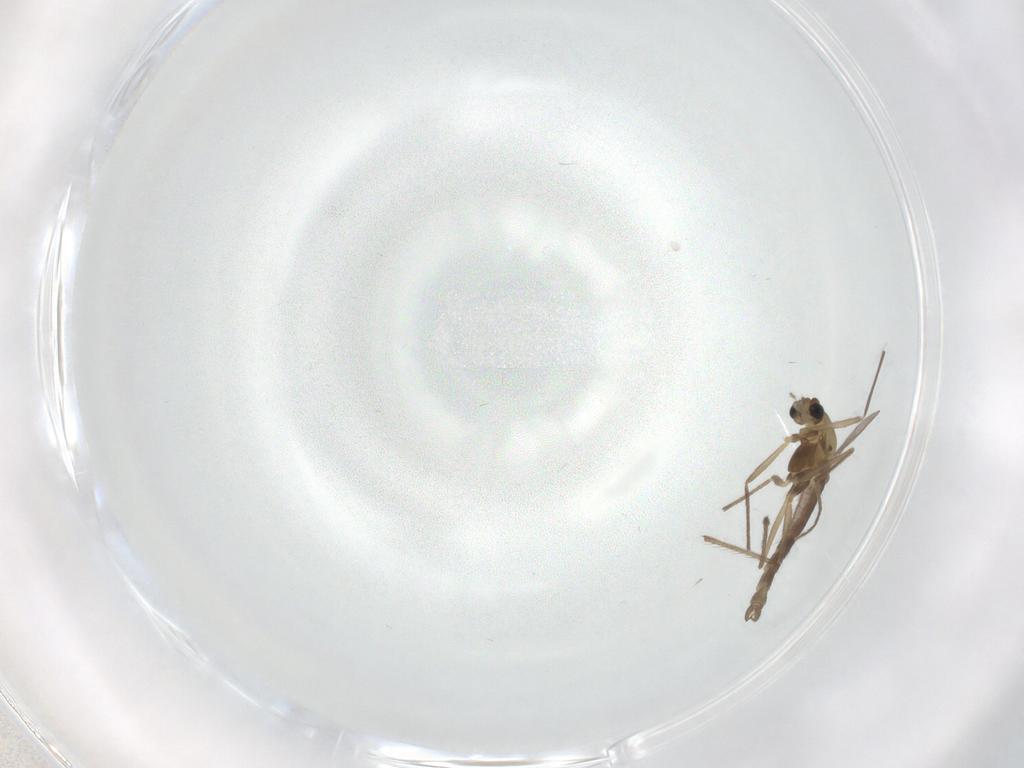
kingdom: Animalia
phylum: Arthropoda
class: Insecta
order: Diptera
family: Chironomidae
